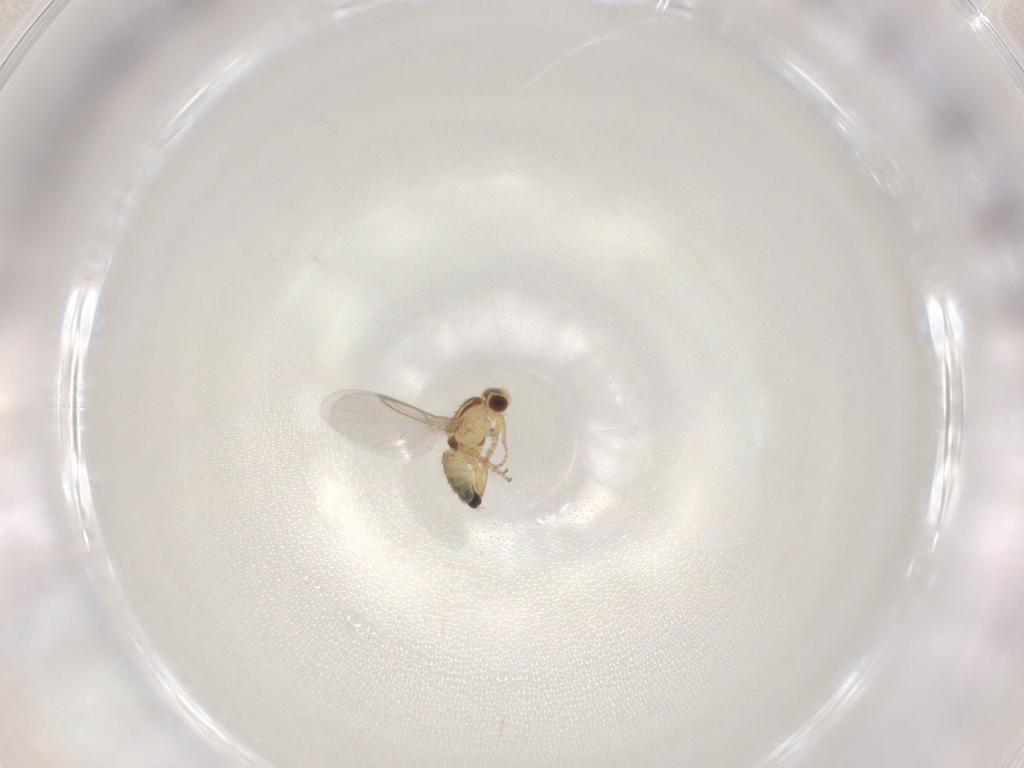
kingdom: Animalia
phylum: Arthropoda
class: Insecta
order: Diptera
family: Agromyzidae
